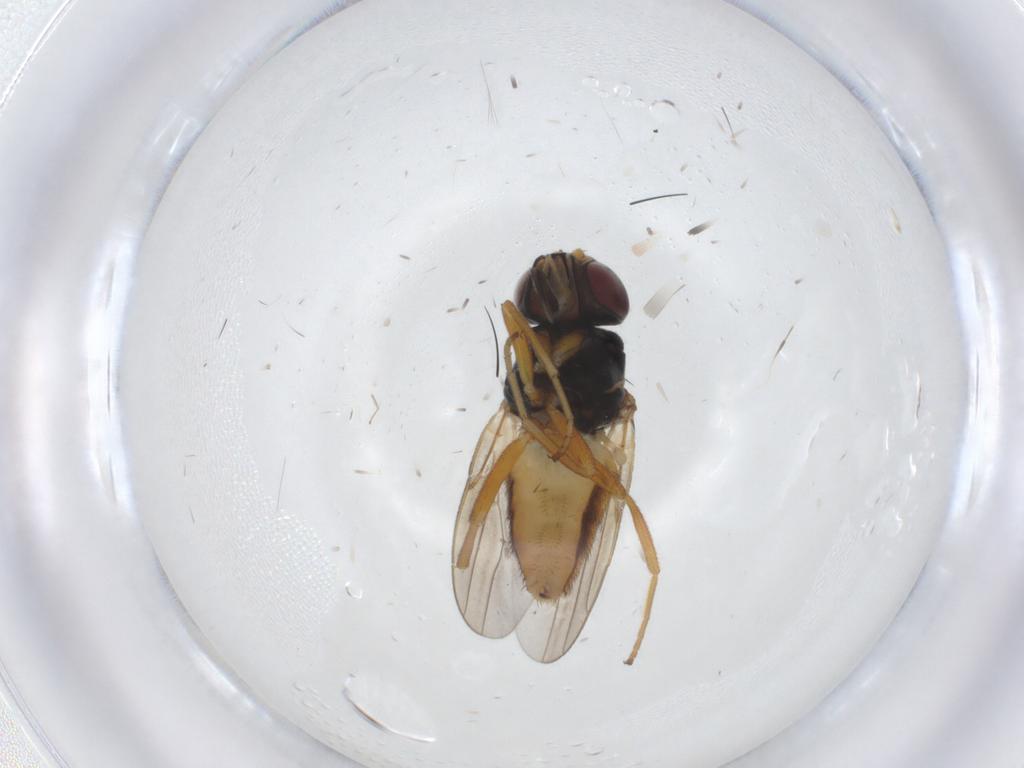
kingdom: Animalia
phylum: Arthropoda
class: Insecta
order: Diptera
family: Chloropidae
